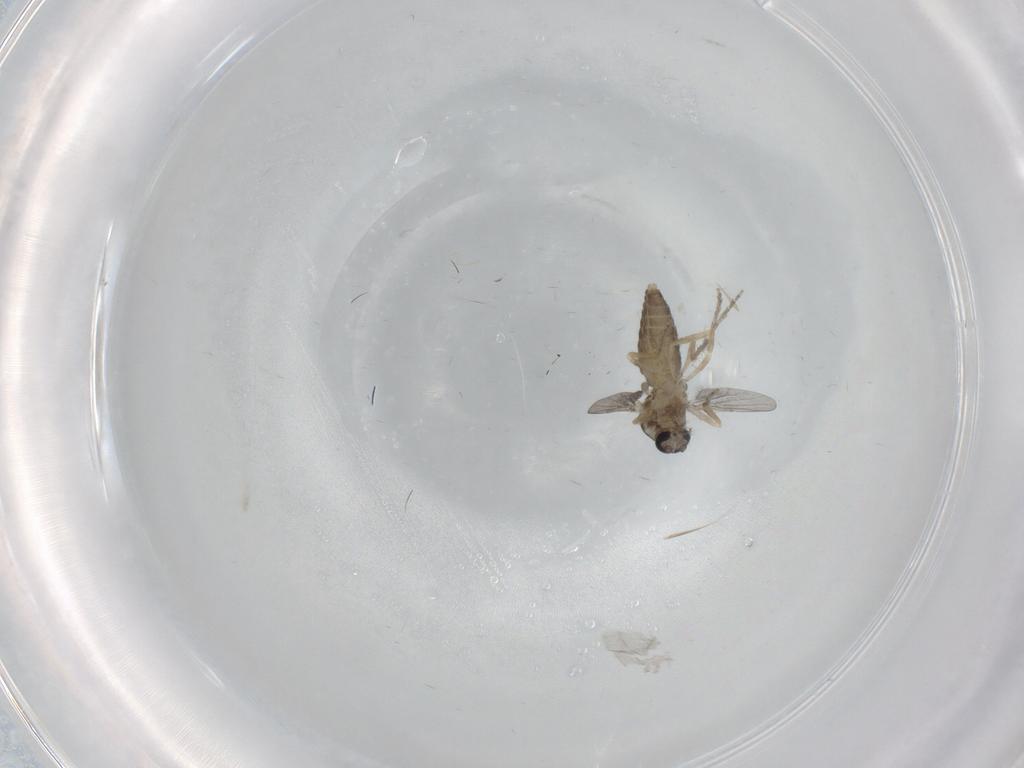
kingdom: Animalia
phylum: Arthropoda
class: Insecta
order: Diptera
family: Ceratopogonidae
